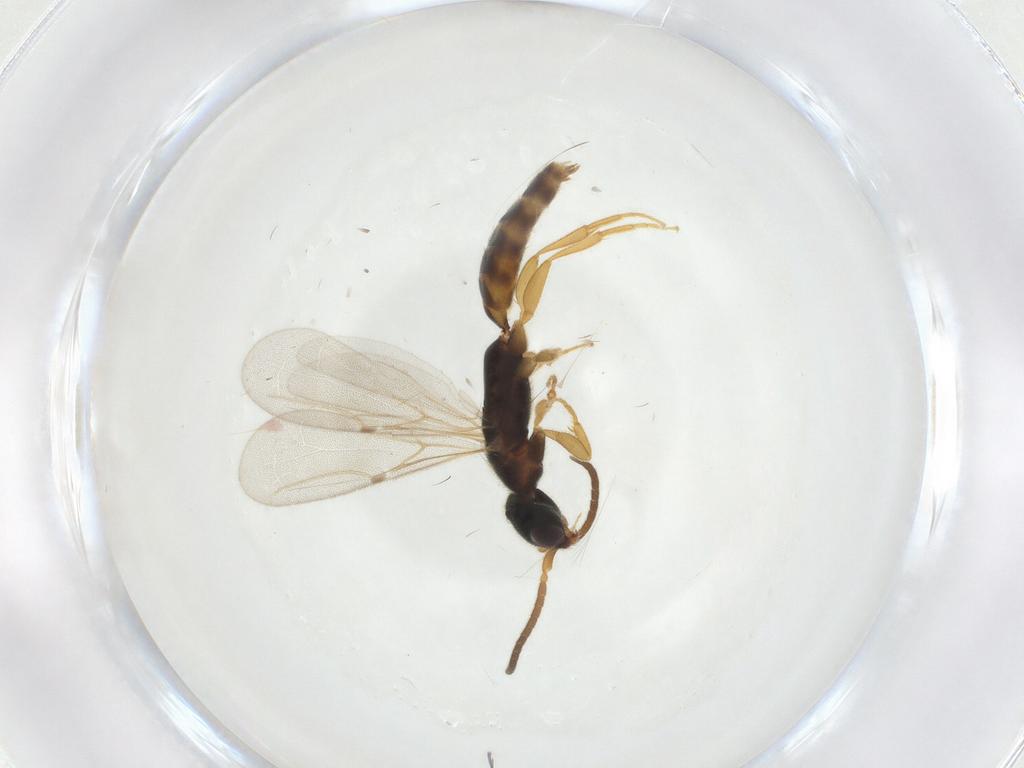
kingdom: Animalia
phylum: Arthropoda
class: Insecta
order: Hymenoptera
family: Bethylidae
